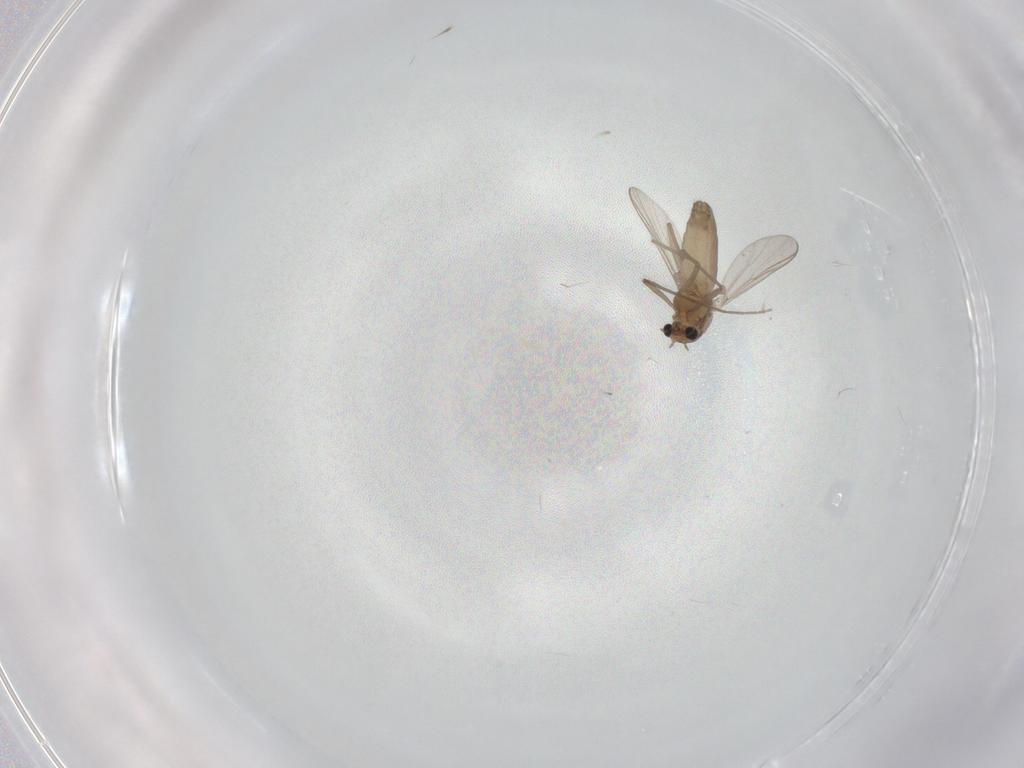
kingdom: Animalia
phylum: Arthropoda
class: Insecta
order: Diptera
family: Chironomidae
